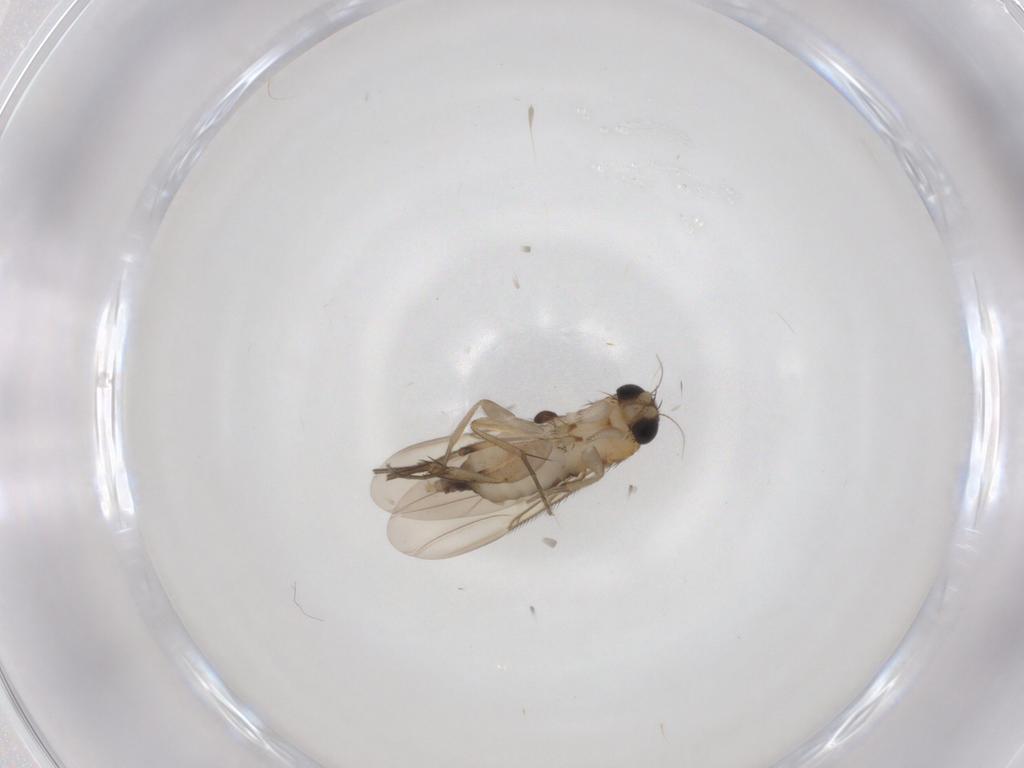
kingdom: Animalia
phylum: Arthropoda
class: Insecta
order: Diptera
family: Phoridae
